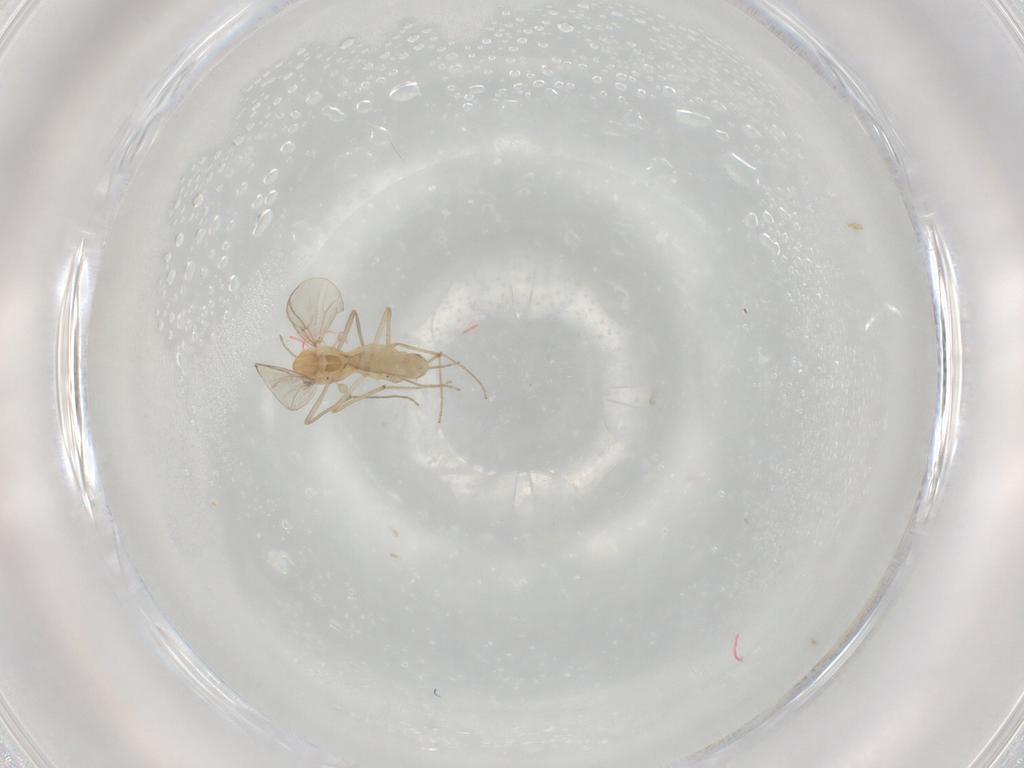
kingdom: Animalia
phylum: Arthropoda
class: Insecta
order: Diptera
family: Chironomidae
